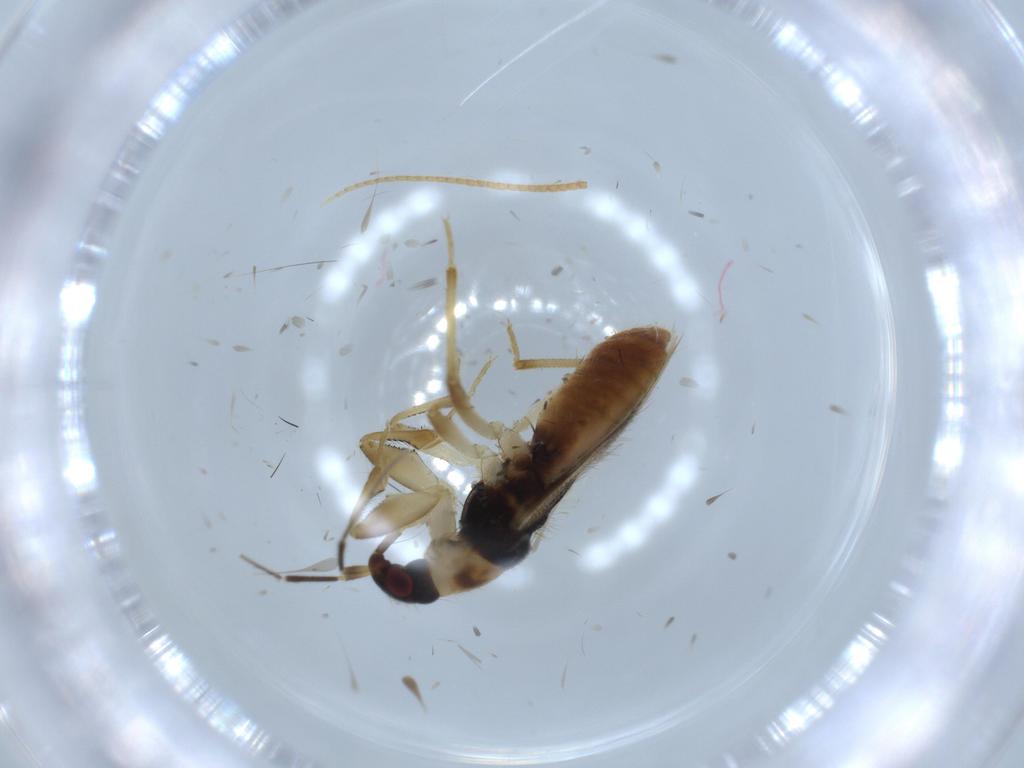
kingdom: Animalia
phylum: Arthropoda
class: Insecta
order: Hemiptera
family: Nabidae
